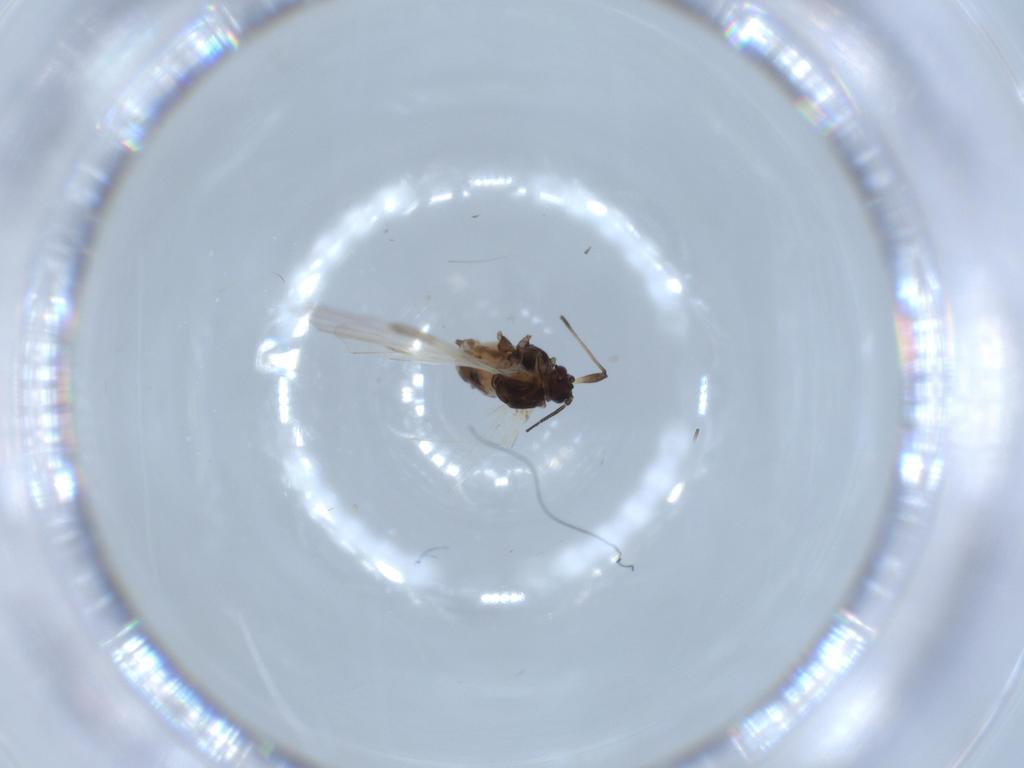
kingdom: Animalia
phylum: Arthropoda
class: Insecta
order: Hemiptera
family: Aphididae
